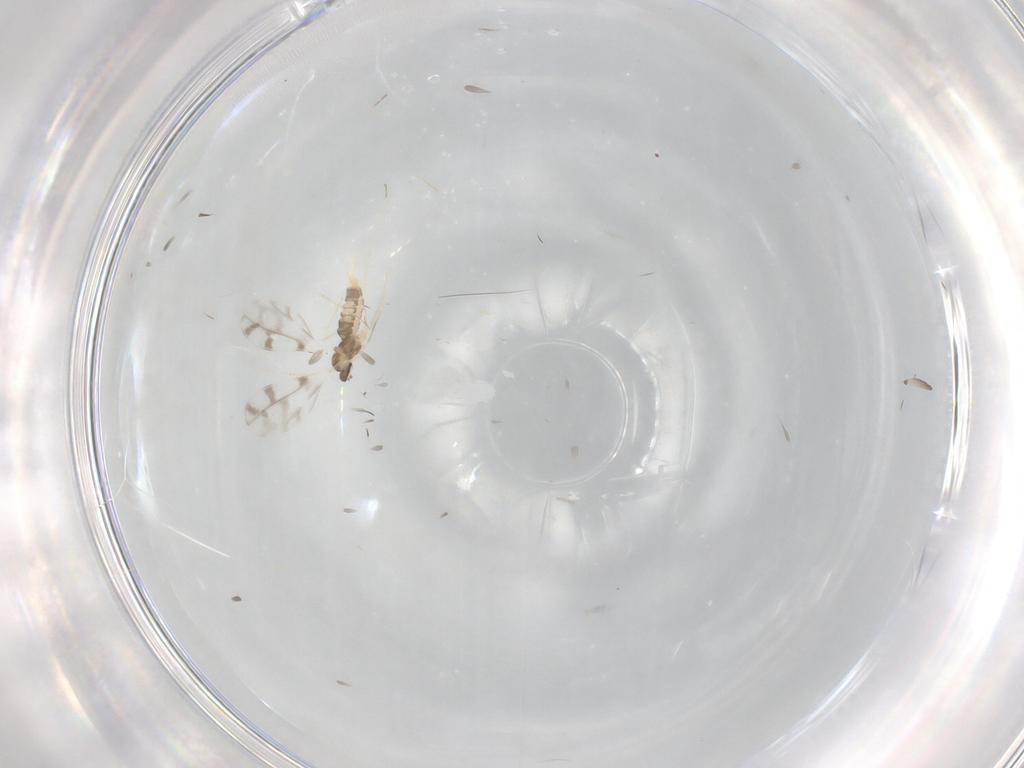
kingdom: Animalia
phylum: Arthropoda
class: Insecta
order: Diptera
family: Cecidomyiidae
